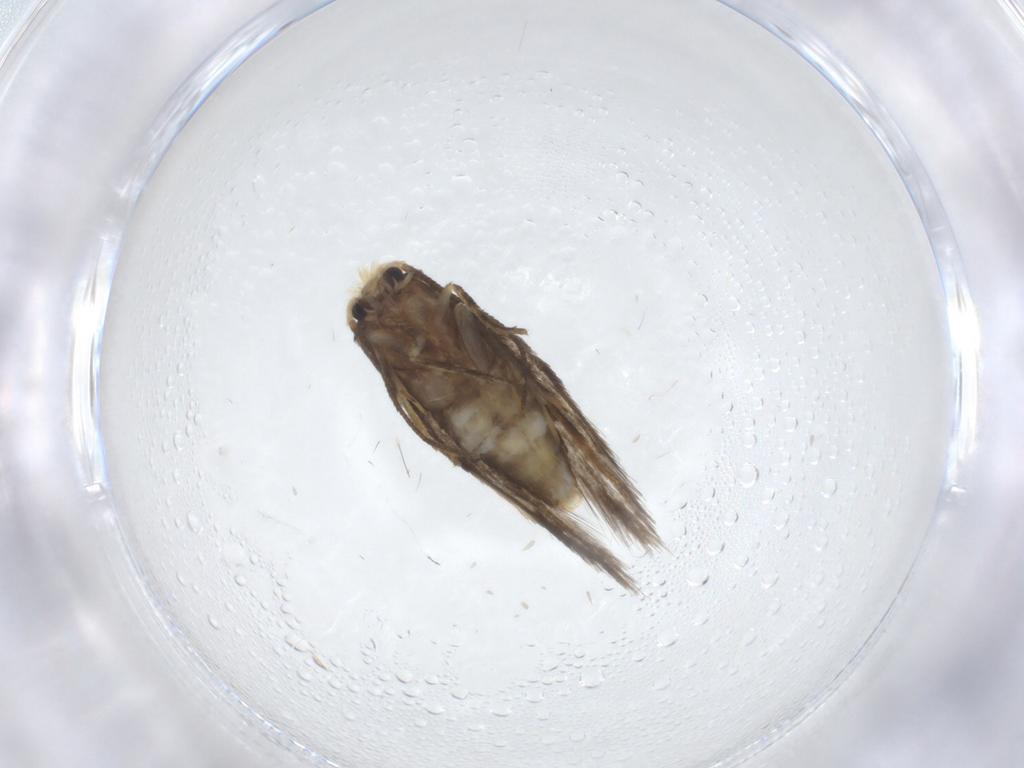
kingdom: Animalia
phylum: Arthropoda
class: Insecta
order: Lepidoptera
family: Nepticulidae
